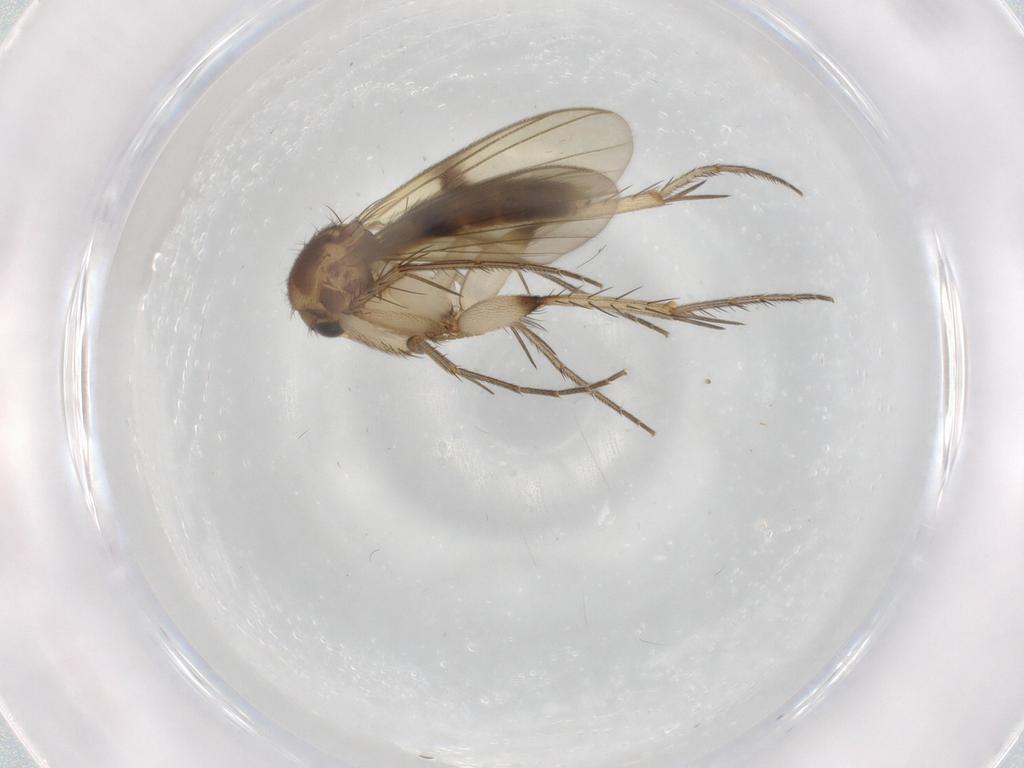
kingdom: Animalia
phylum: Arthropoda
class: Insecta
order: Diptera
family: Mycetophilidae
